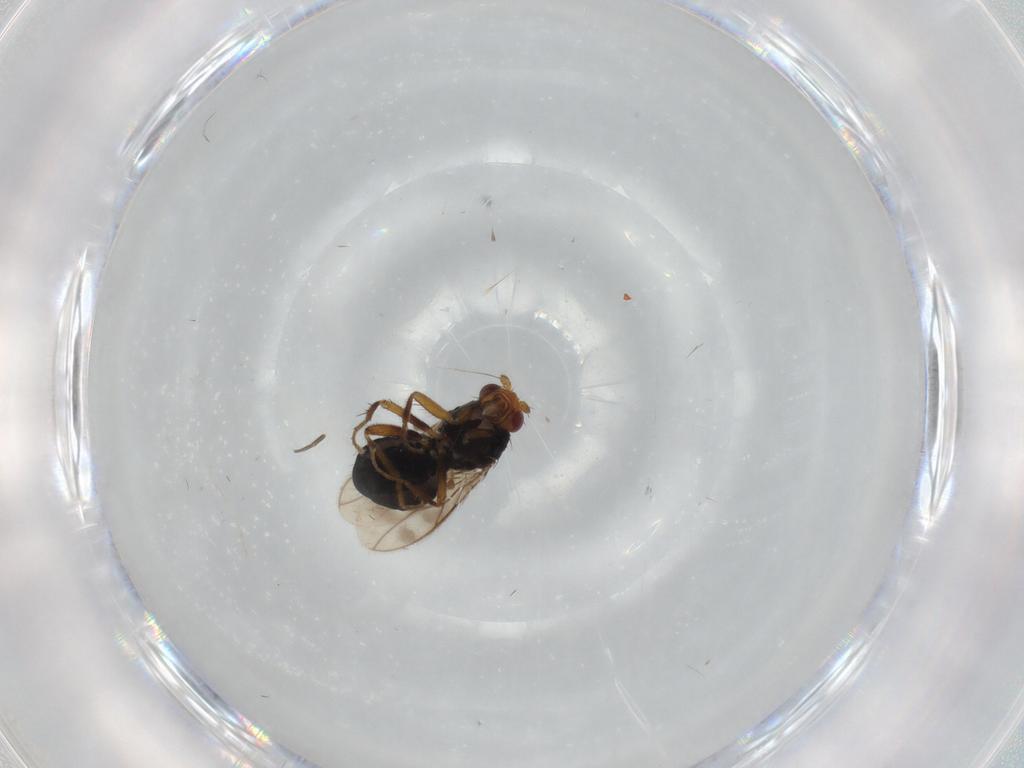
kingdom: Animalia
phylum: Arthropoda
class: Insecta
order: Diptera
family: Sphaeroceridae
